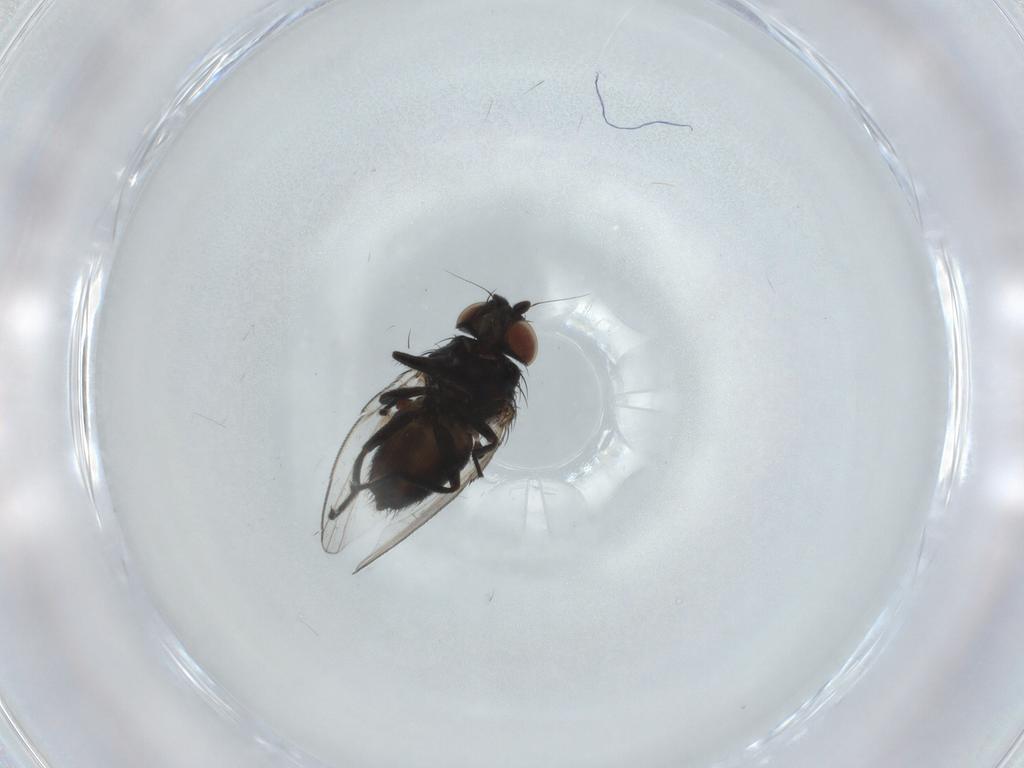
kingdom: Animalia
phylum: Arthropoda
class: Insecta
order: Diptera
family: Milichiidae
